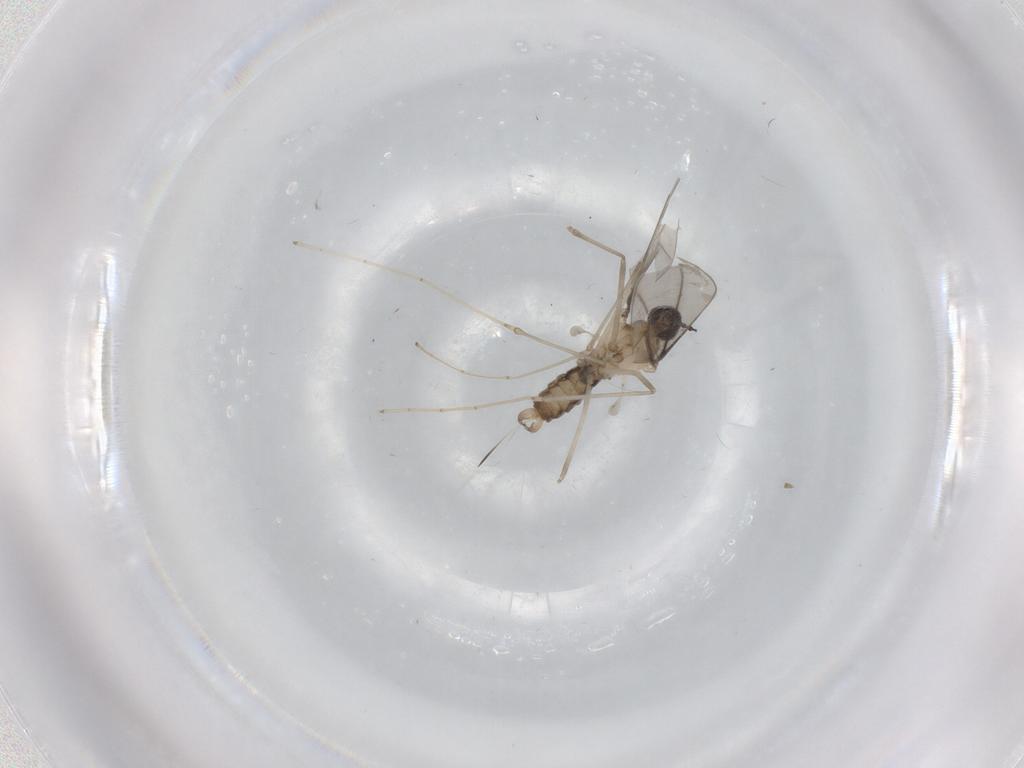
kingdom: Animalia
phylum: Arthropoda
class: Insecta
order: Diptera
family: Cecidomyiidae
